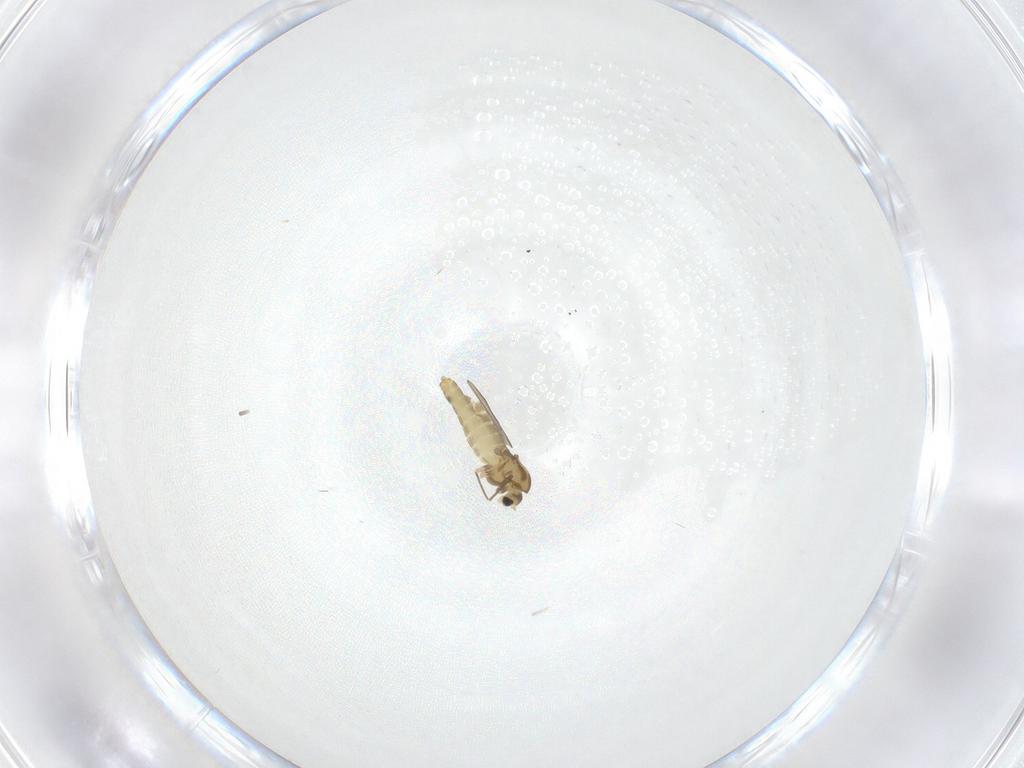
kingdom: Animalia
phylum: Arthropoda
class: Insecta
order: Diptera
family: Chironomidae
